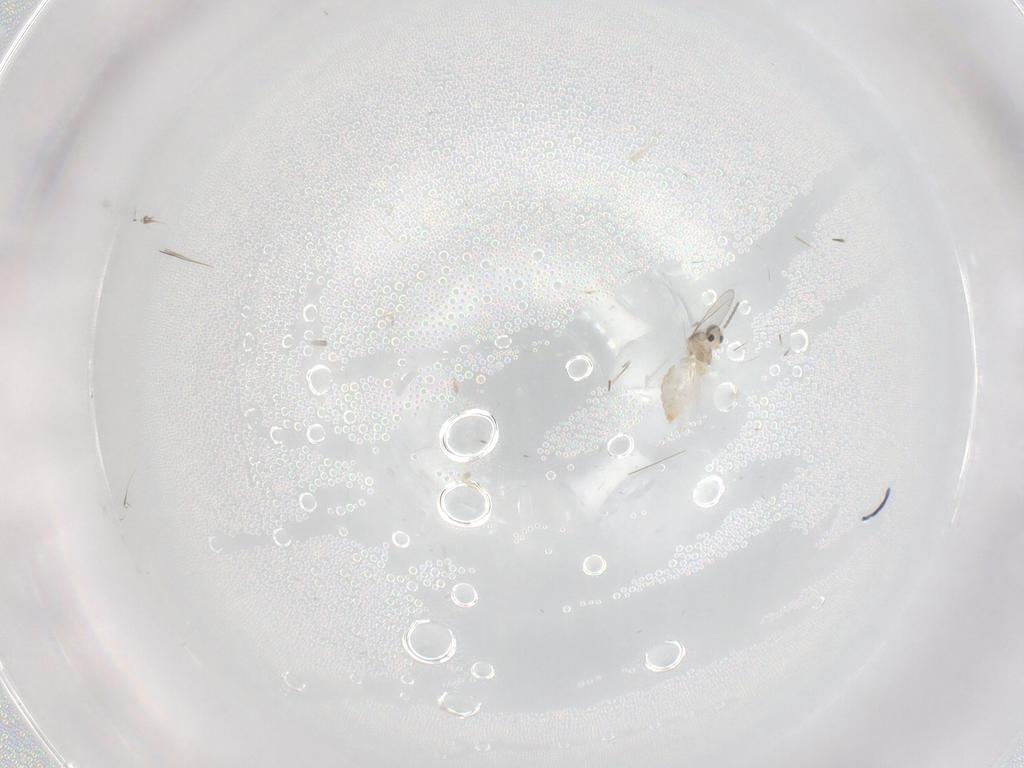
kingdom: Animalia
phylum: Arthropoda
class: Insecta
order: Diptera
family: Cecidomyiidae
